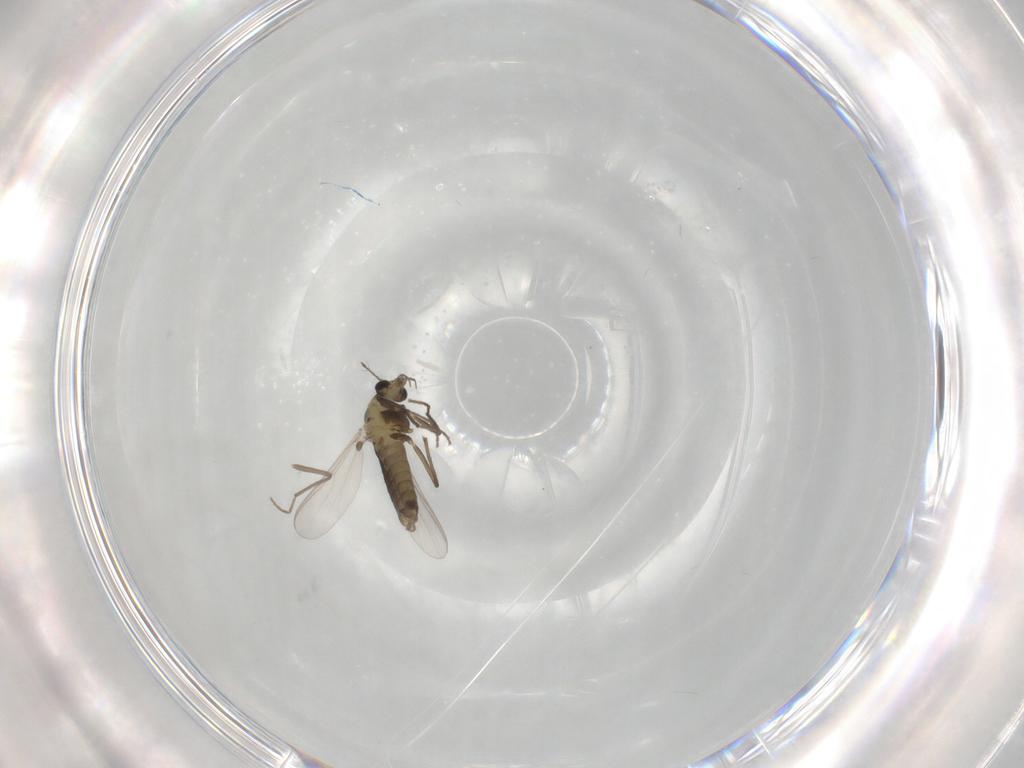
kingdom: Animalia
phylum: Arthropoda
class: Insecta
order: Diptera
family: Chironomidae
